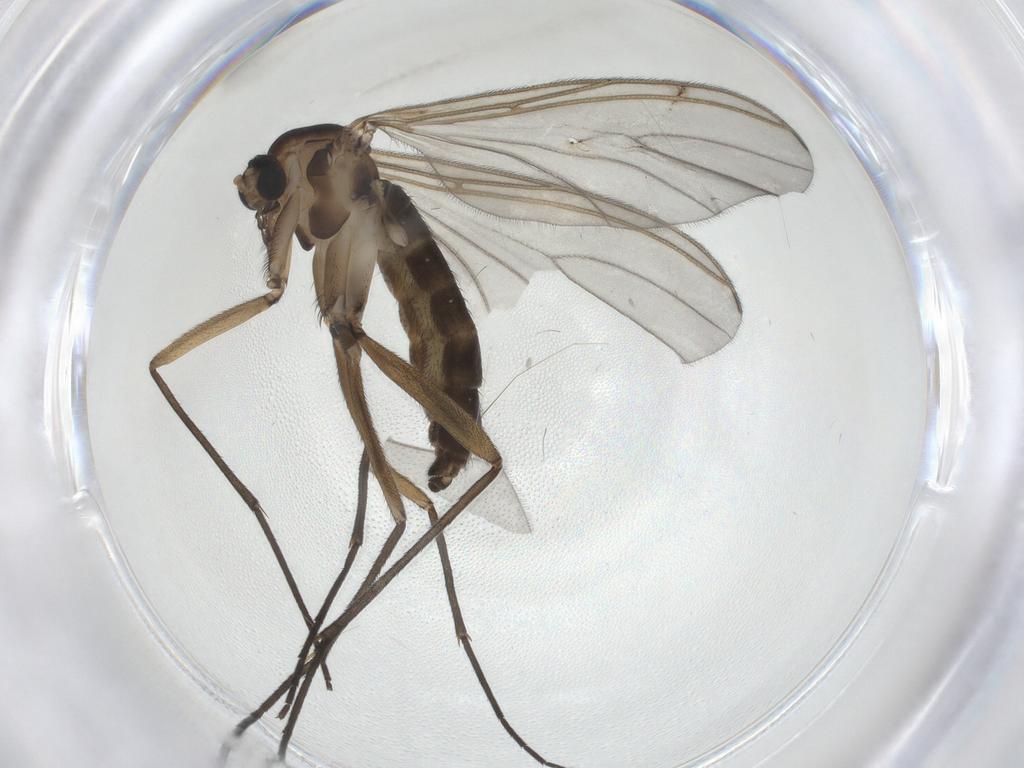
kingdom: Animalia
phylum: Arthropoda
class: Insecta
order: Diptera
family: Sciaridae
